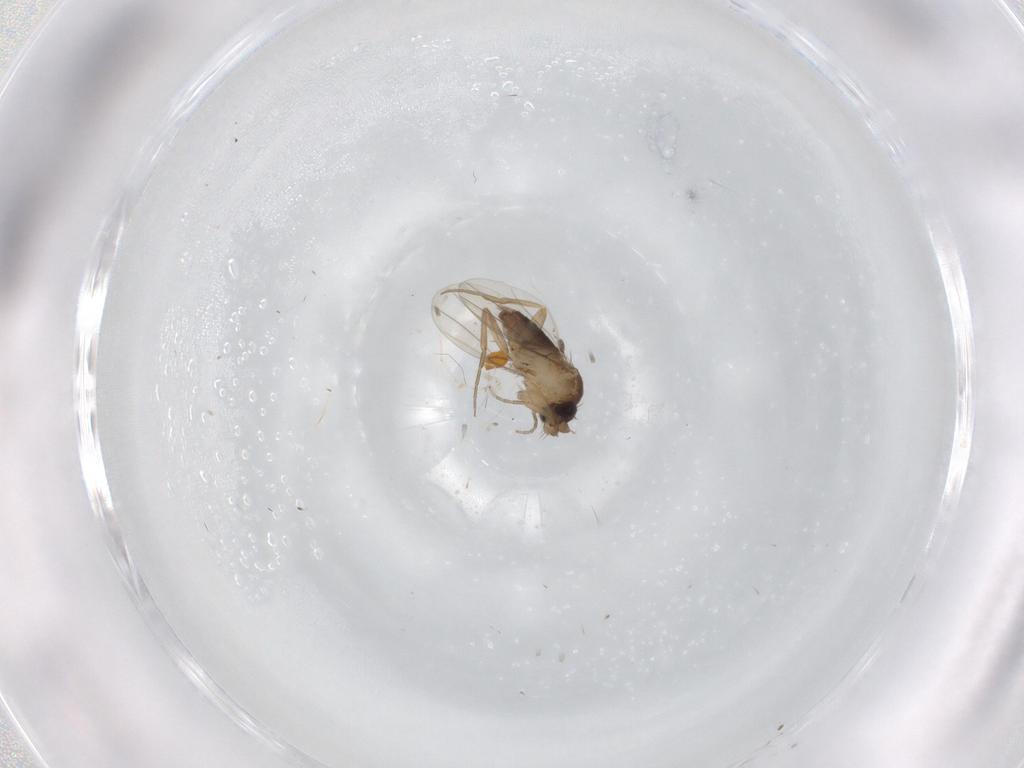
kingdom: Animalia
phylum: Arthropoda
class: Insecta
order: Diptera
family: Phoridae
